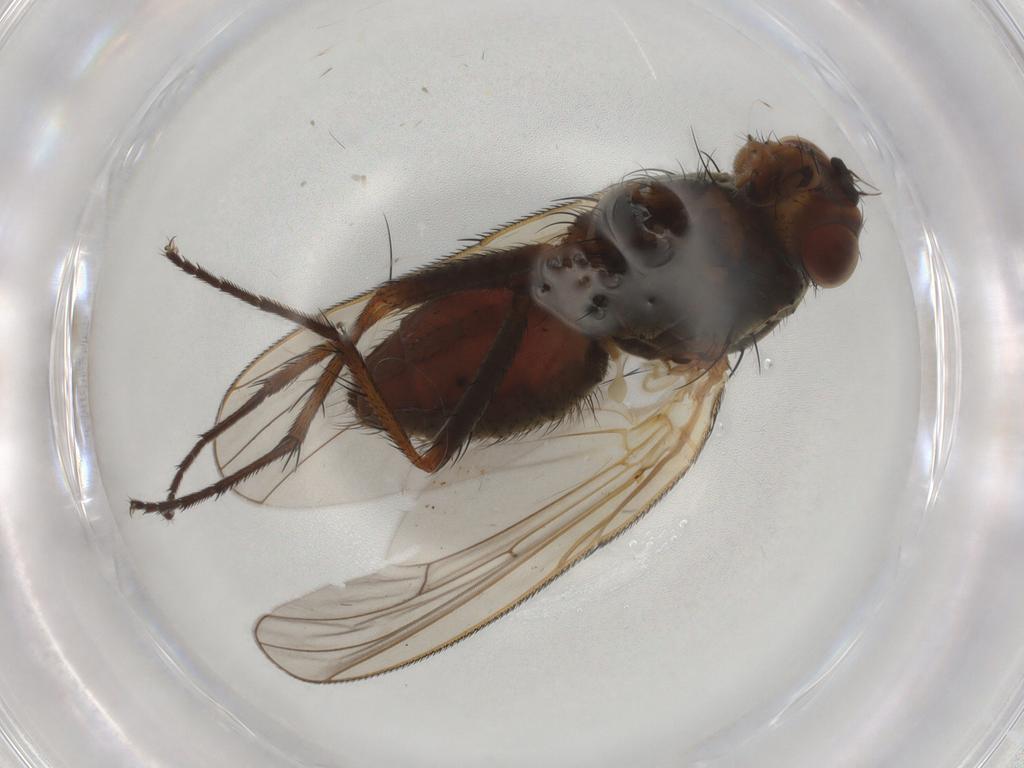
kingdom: Animalia
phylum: Arthropoda
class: Insecta
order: Diptera
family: Anthomyiidae
